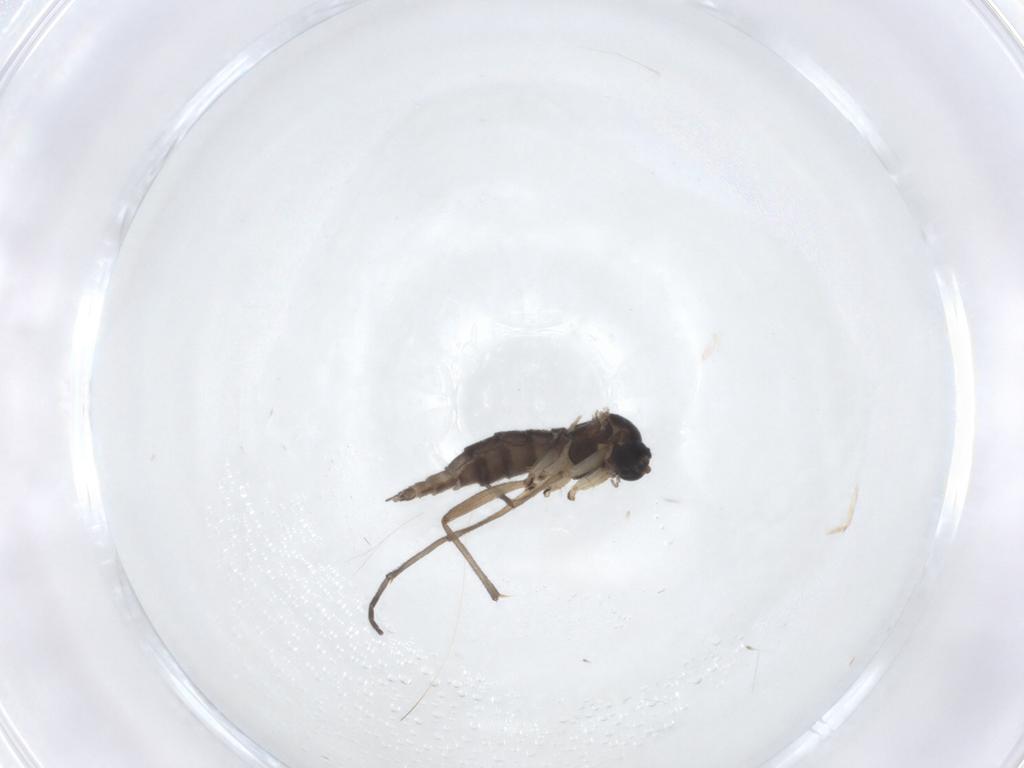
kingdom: Animalia
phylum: Arthropoda
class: Insecta
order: Diptera
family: Sciaridae
